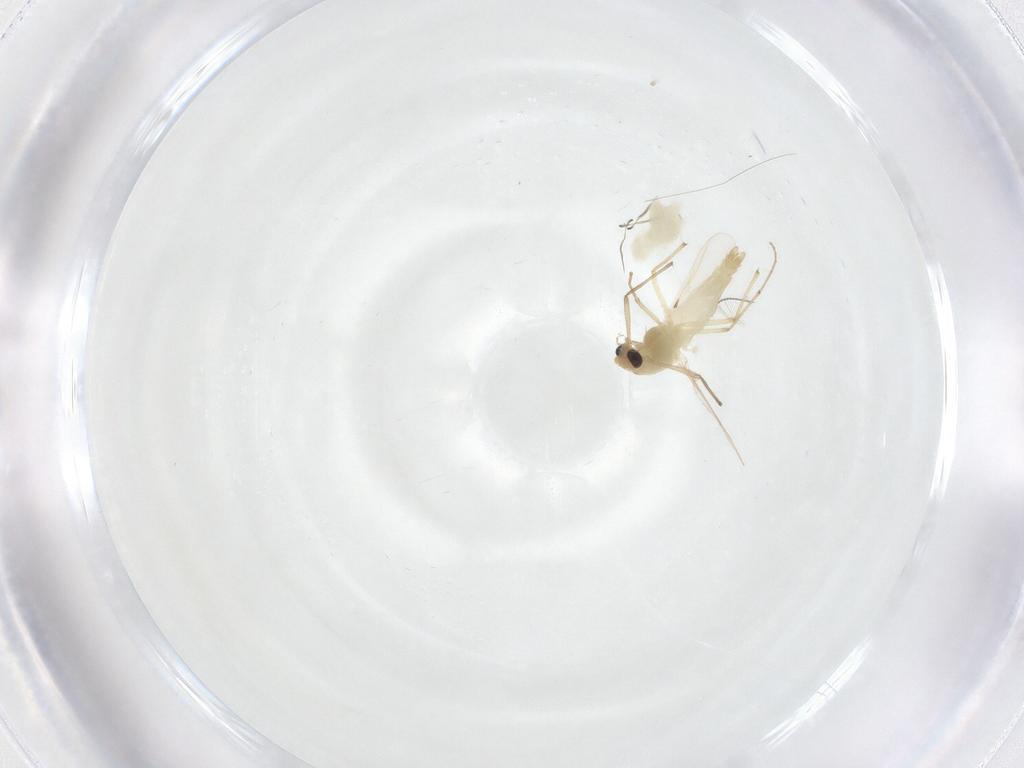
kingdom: Animalia
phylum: Arthropoda
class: Insecta
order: Diptera
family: Chironomidae
